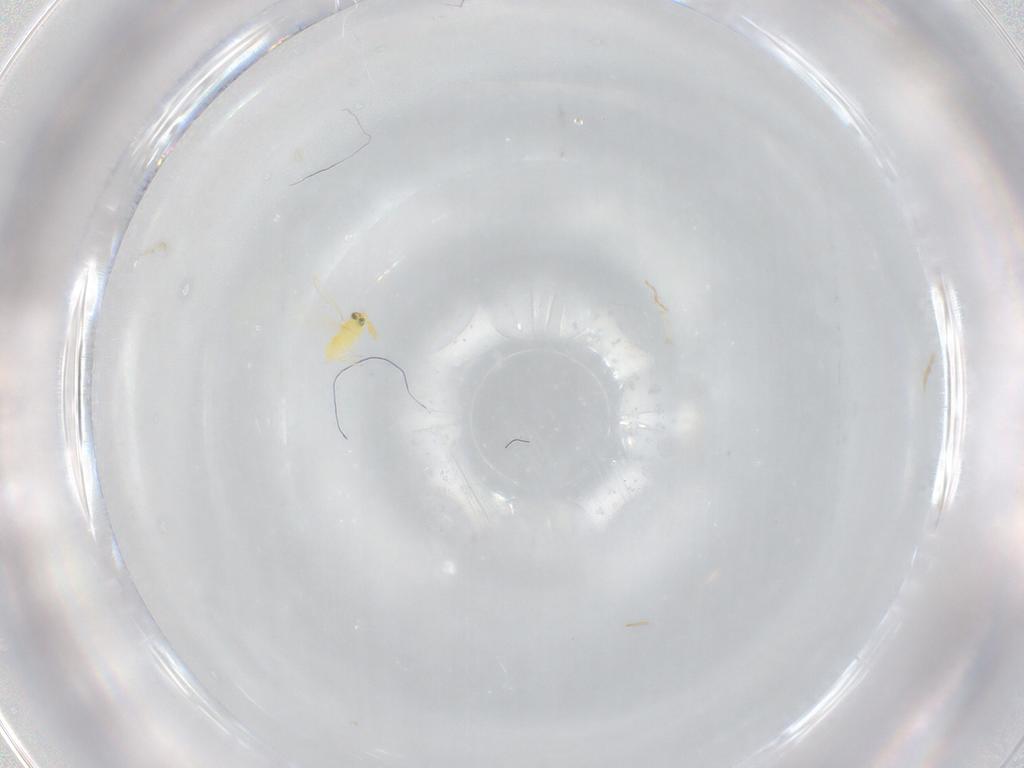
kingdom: Animalia
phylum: Arthropoda
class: Insecta
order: Hymenoptera
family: Aphelinidae
